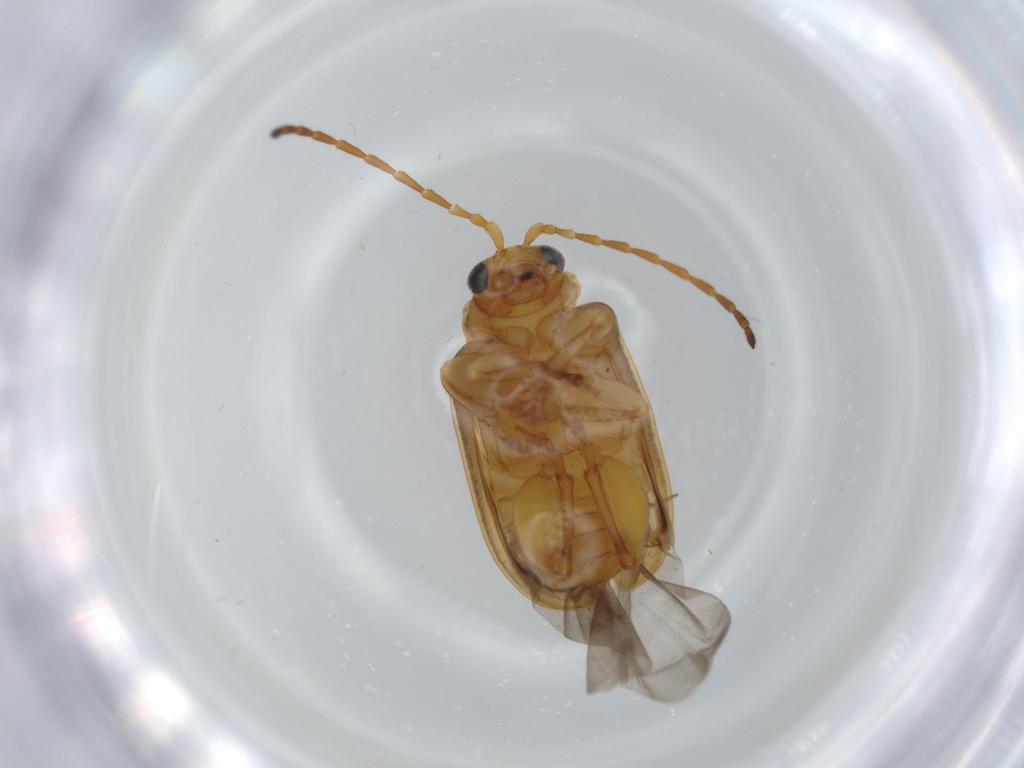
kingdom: Animalia
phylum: Arthropoda
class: Insecta
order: Coleoptera
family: Chrysomelidae
